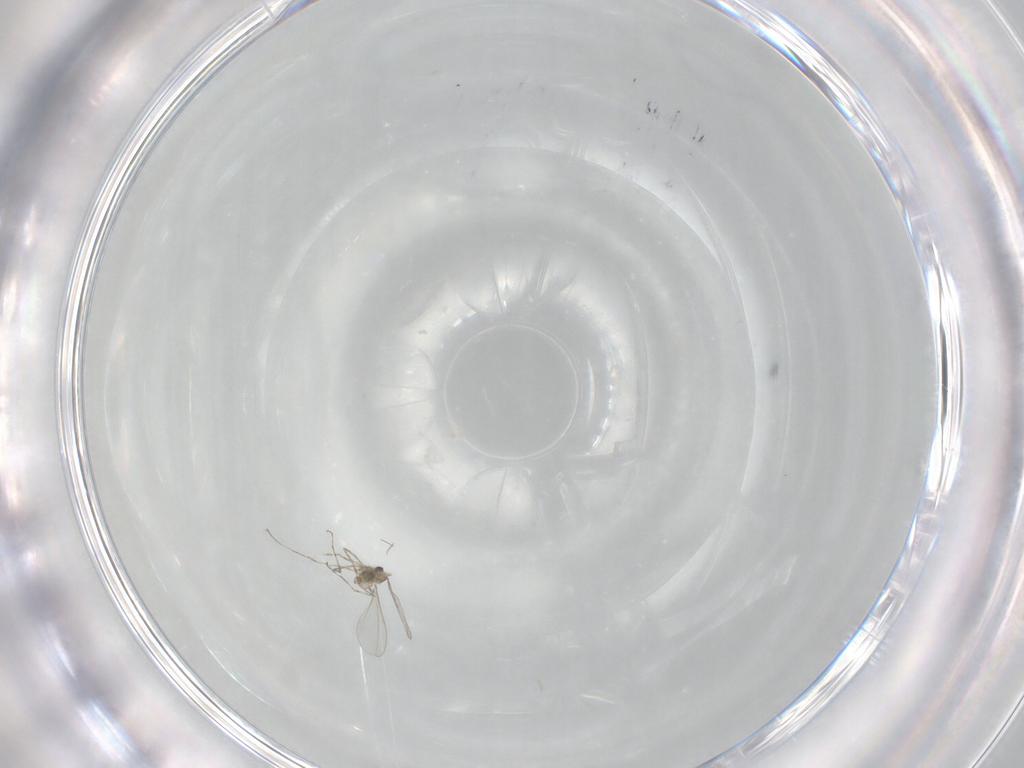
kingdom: Animalia
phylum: Arthropoda
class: Insecta
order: Diptera
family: Cecidomyiidae
